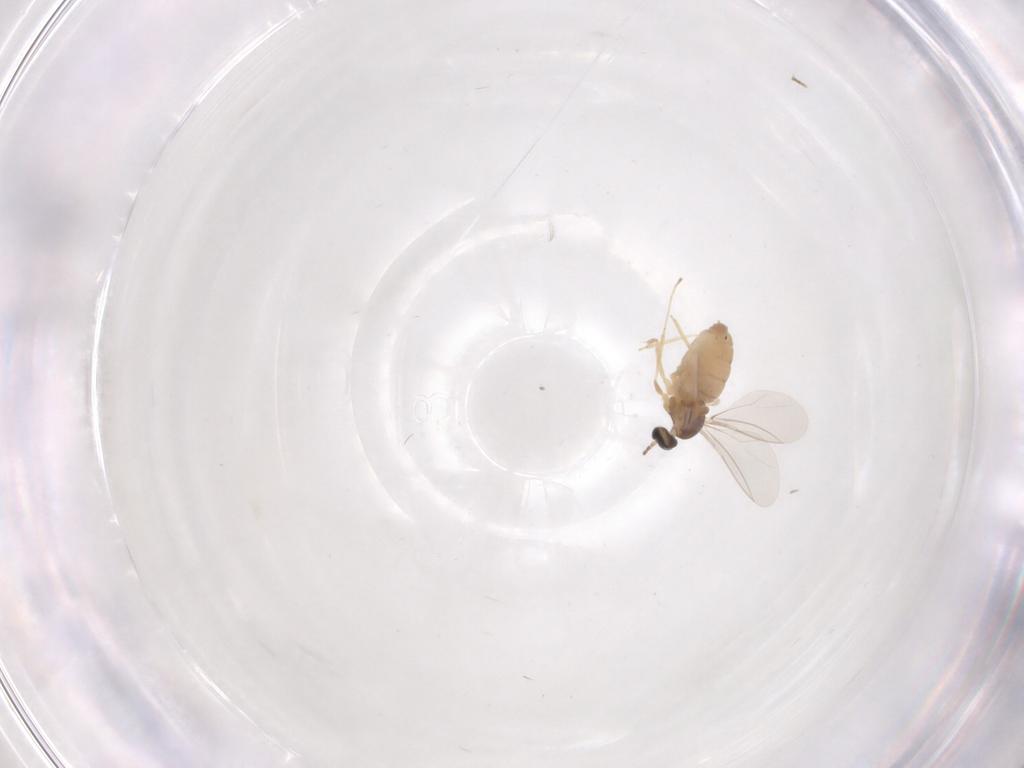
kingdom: Animalia
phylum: Arthropoda
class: Insecta
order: Diptera
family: Cecidomyiidae
